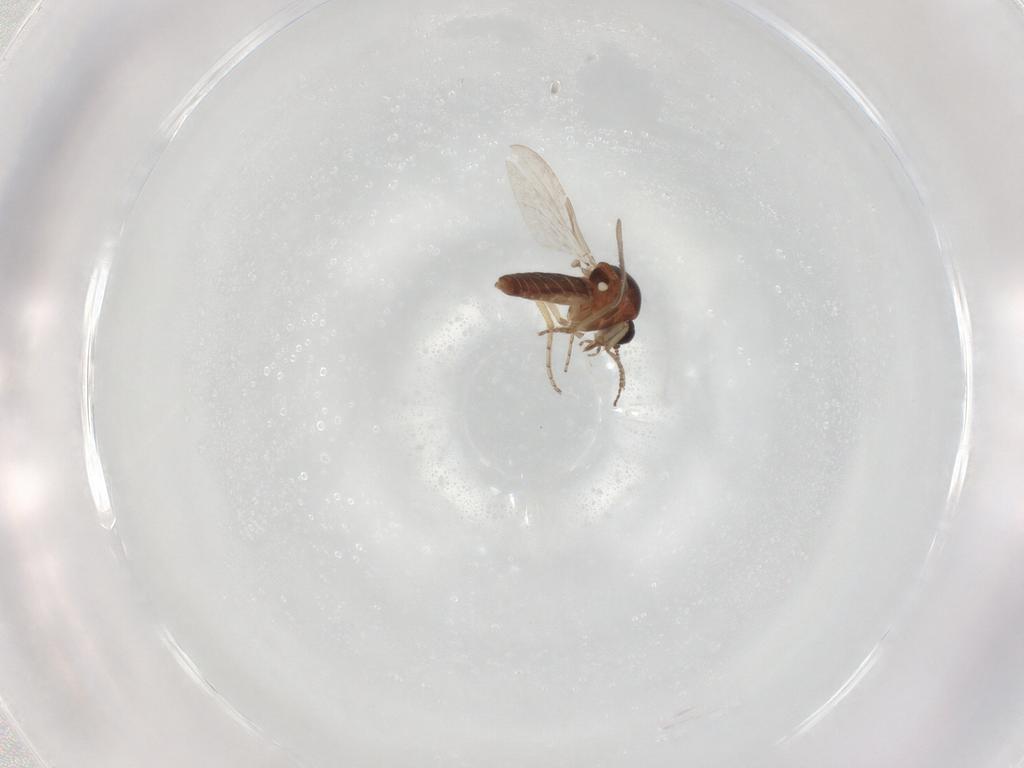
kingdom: Animalia
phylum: Arthropoda
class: Insecta
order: Diptera
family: Ceratopogonidae
